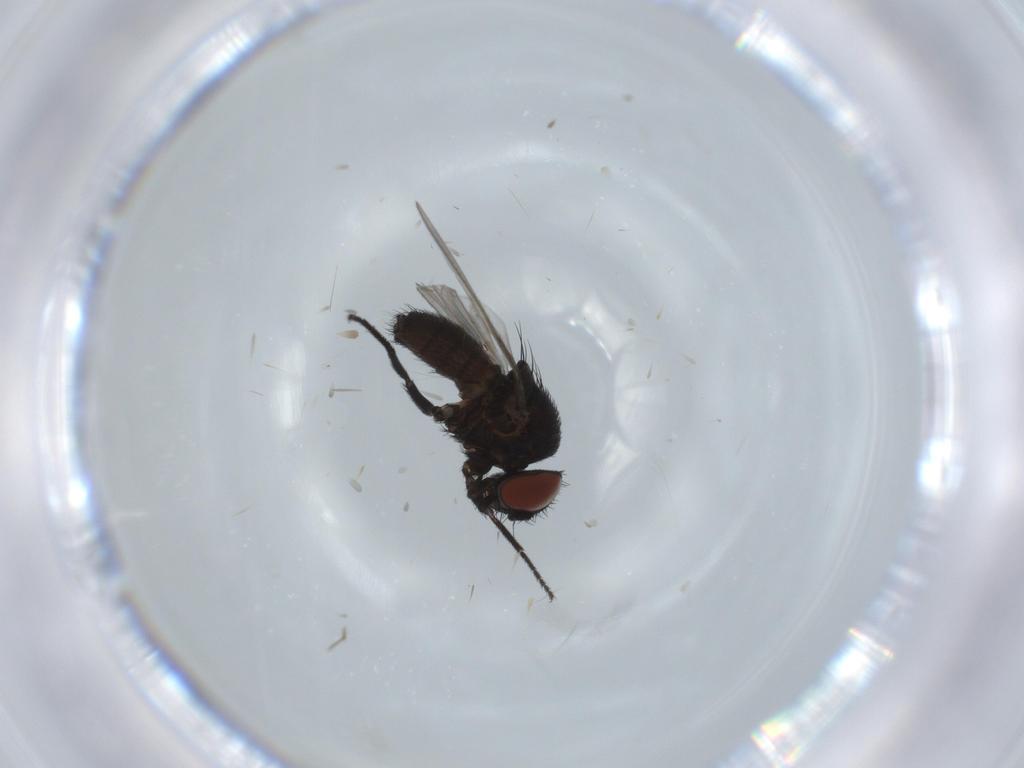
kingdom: Animalia
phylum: Arthropoda
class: Insecta
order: Diptera
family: Milichiidae
